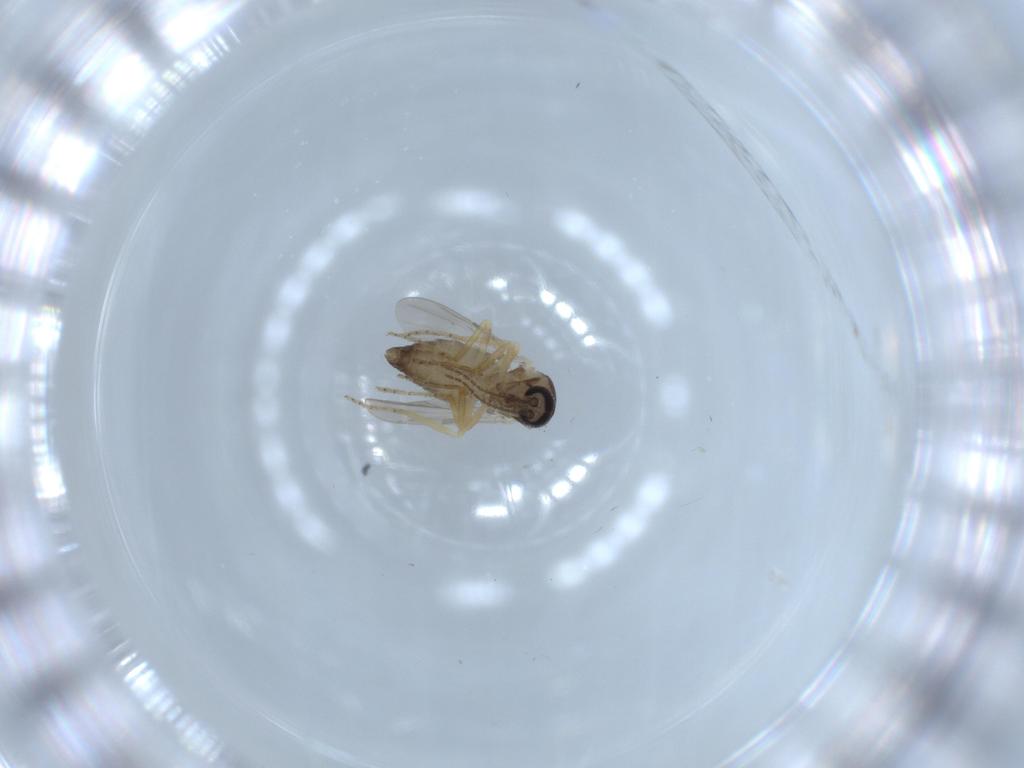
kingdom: Animalia
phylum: Arthropoda
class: Insecta
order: Diptera
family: Ceratopogonidae
